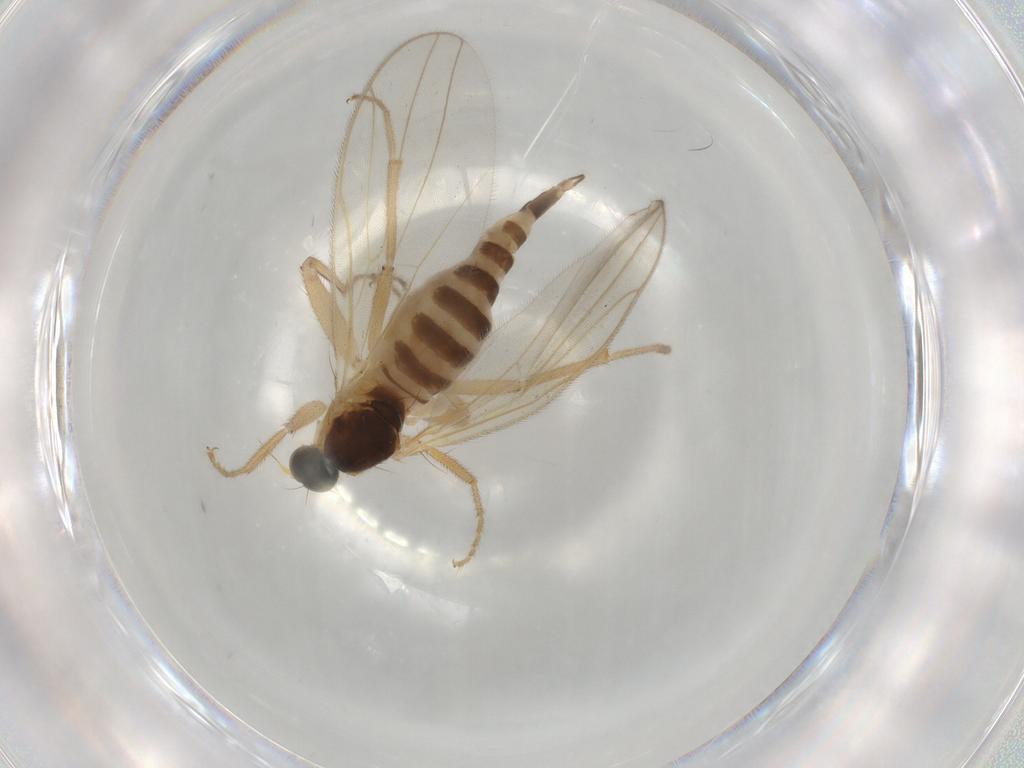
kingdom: Animalia
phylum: Arthropoda
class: Insecta
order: Diptera
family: Hybotidae
